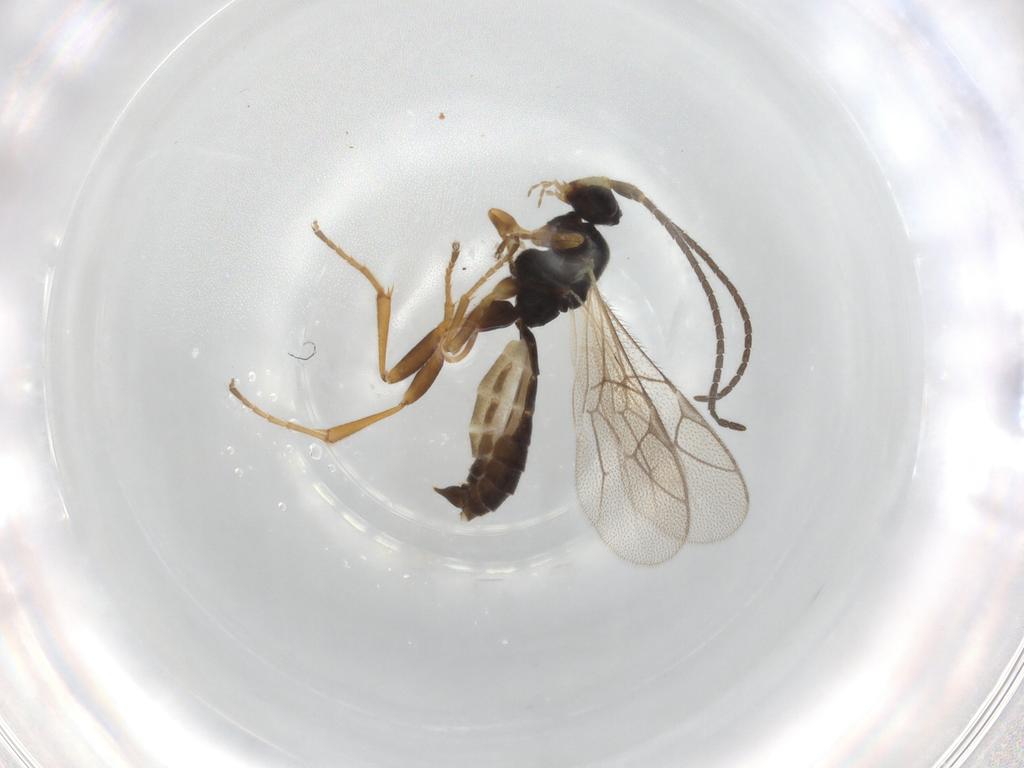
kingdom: Animalia
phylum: Arthropoda
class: Insecta
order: Hymenoptera
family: Ichneumonidae
